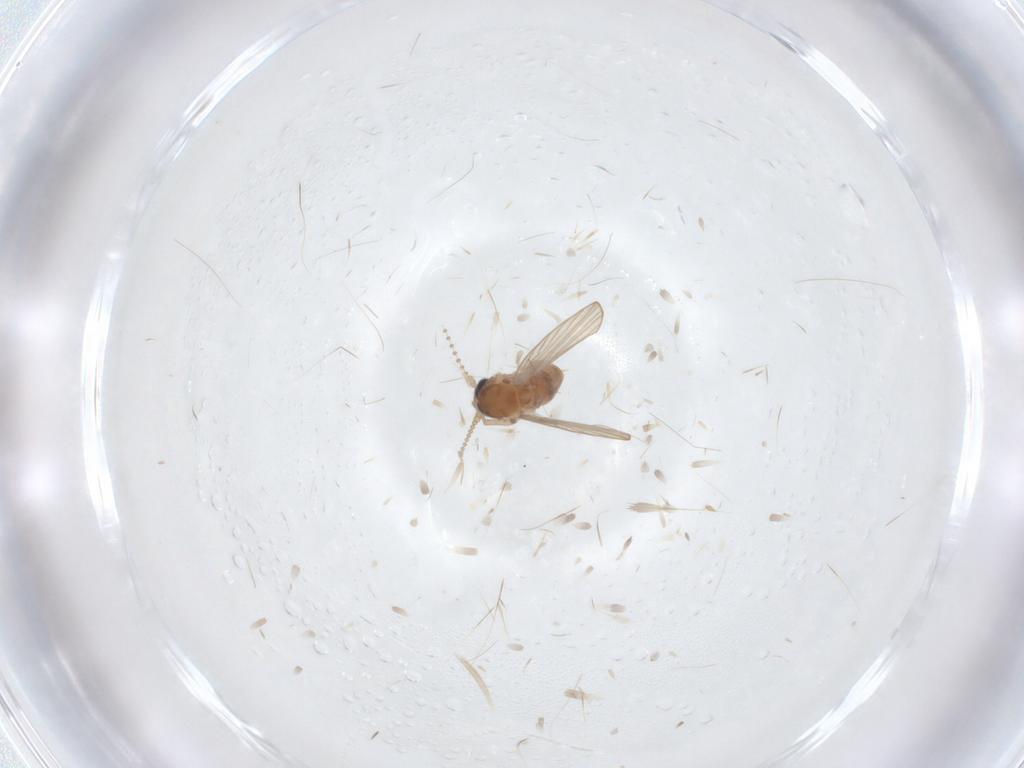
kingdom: Animalia
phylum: Arthropoda
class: Insecta
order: Diptera
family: Psychodidae
